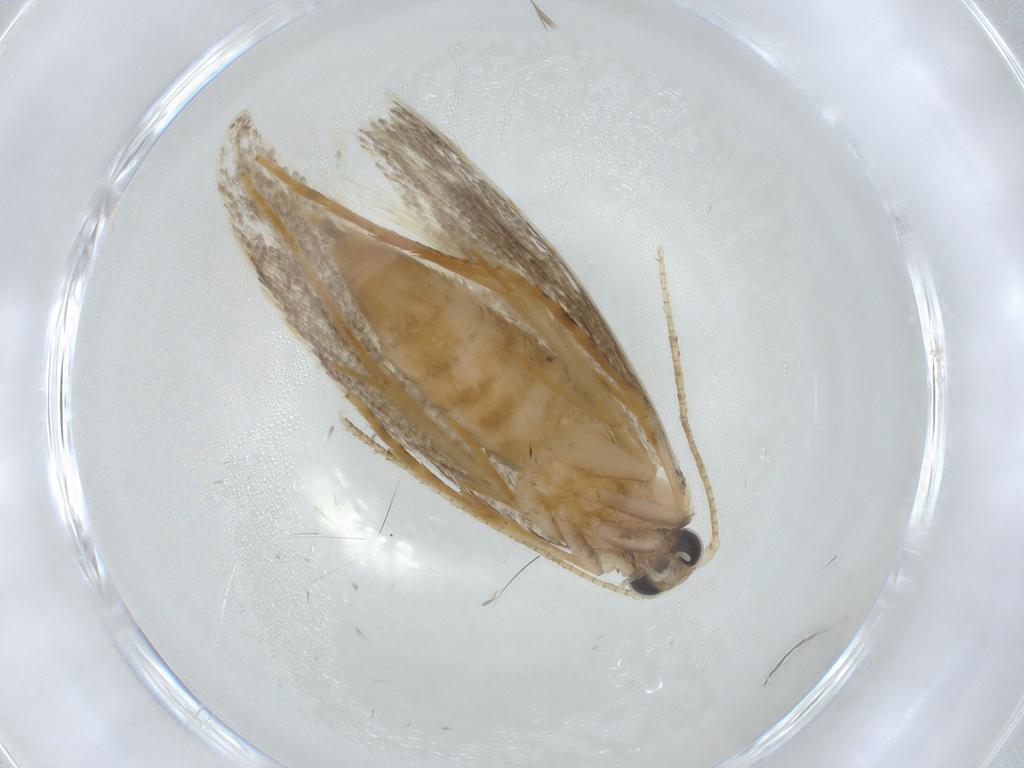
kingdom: Animalia
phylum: Arthropoda
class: Insecta
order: Lepidoptera
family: Tineidae
